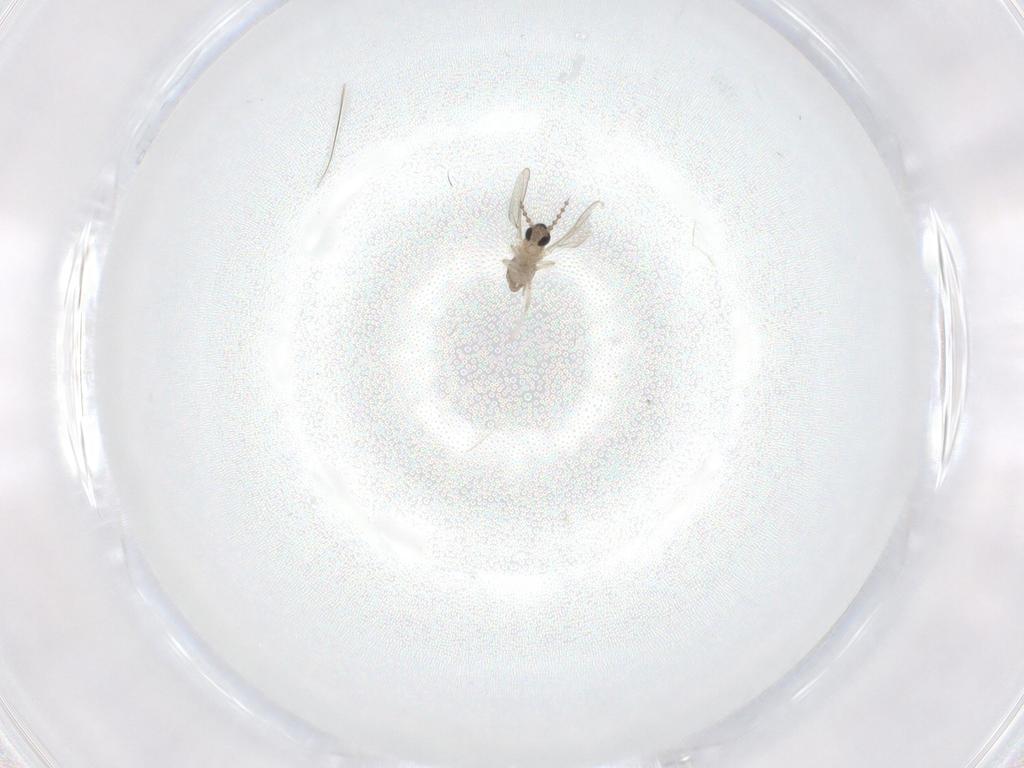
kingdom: Animalia
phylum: Arthropoda
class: Insecta
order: Diptera
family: Cecidomyiidae
